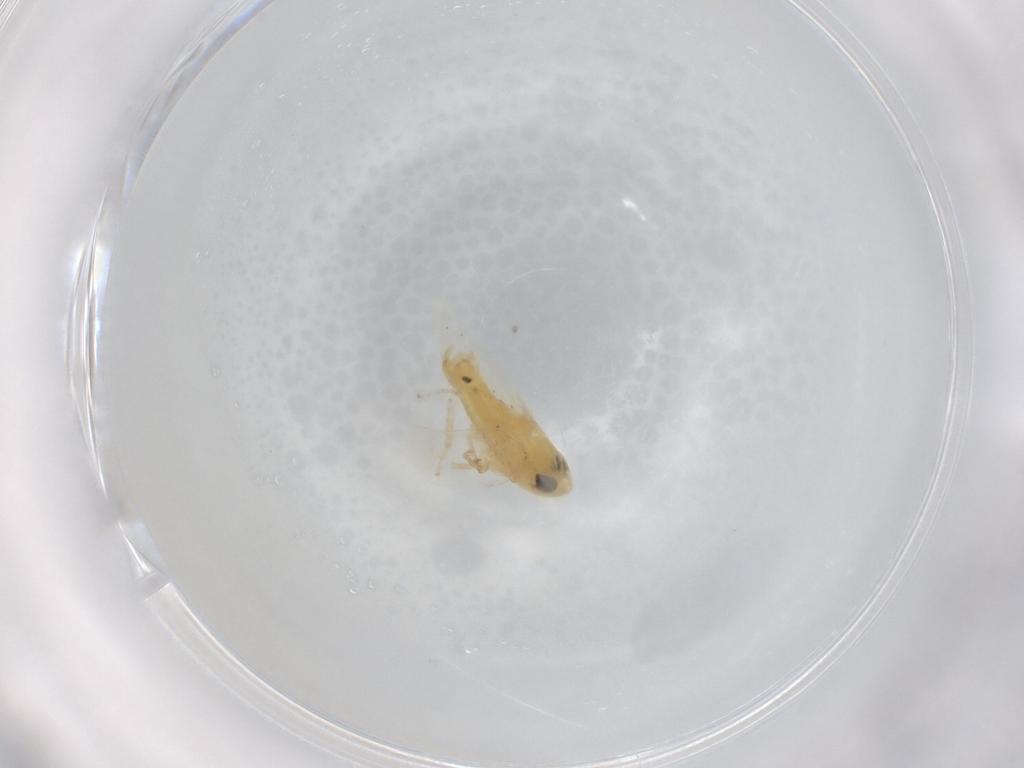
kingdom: Animalia
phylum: Arthropoda
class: Insecta
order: Hemiptera
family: Cicadellidae
